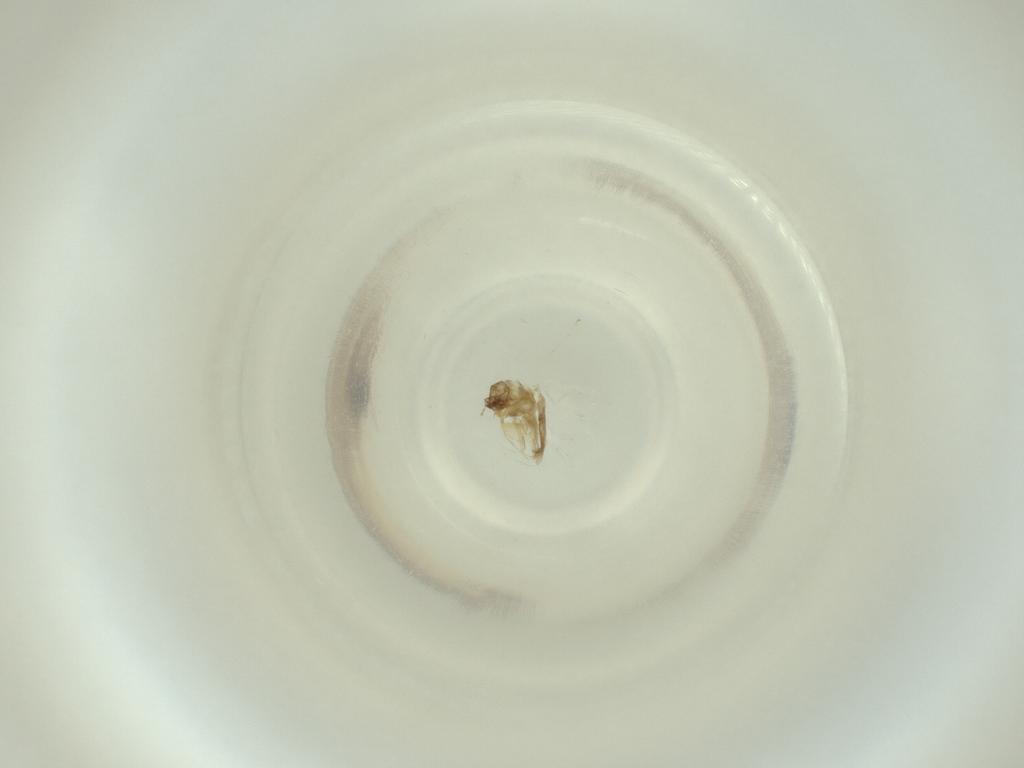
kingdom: Animalia
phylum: Arthropoda
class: Insecta
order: Diptera
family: Cecidomyiidae
